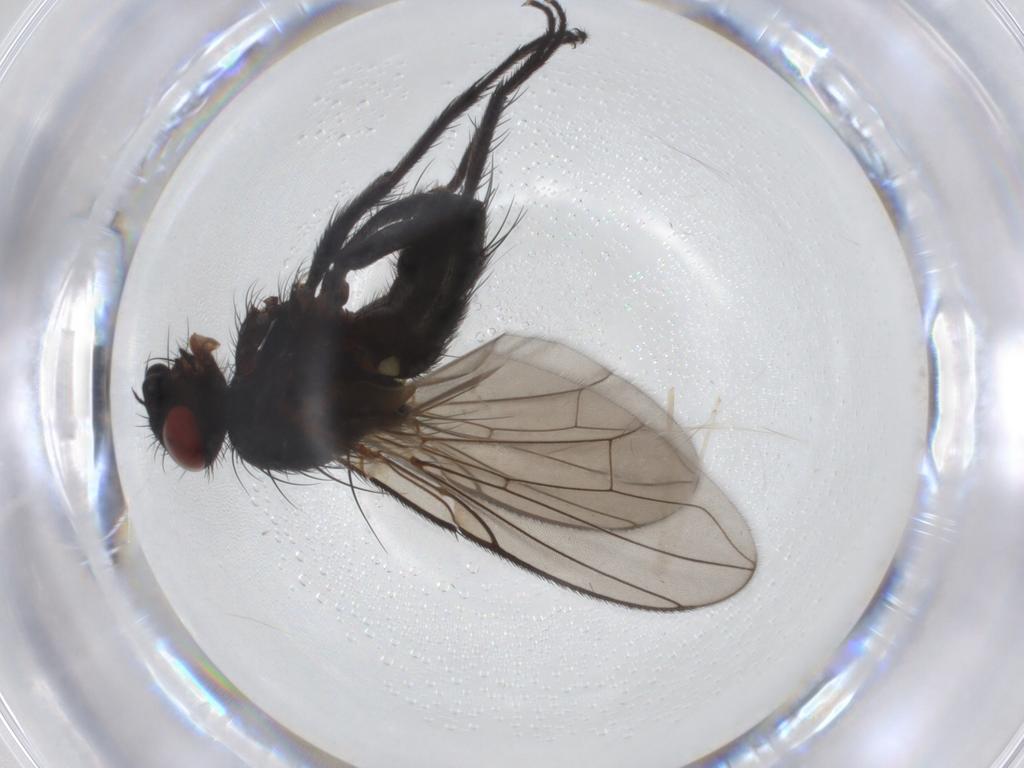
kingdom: Animalia
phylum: Arthropoda
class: Insecta
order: Diptera
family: Tachinidae
